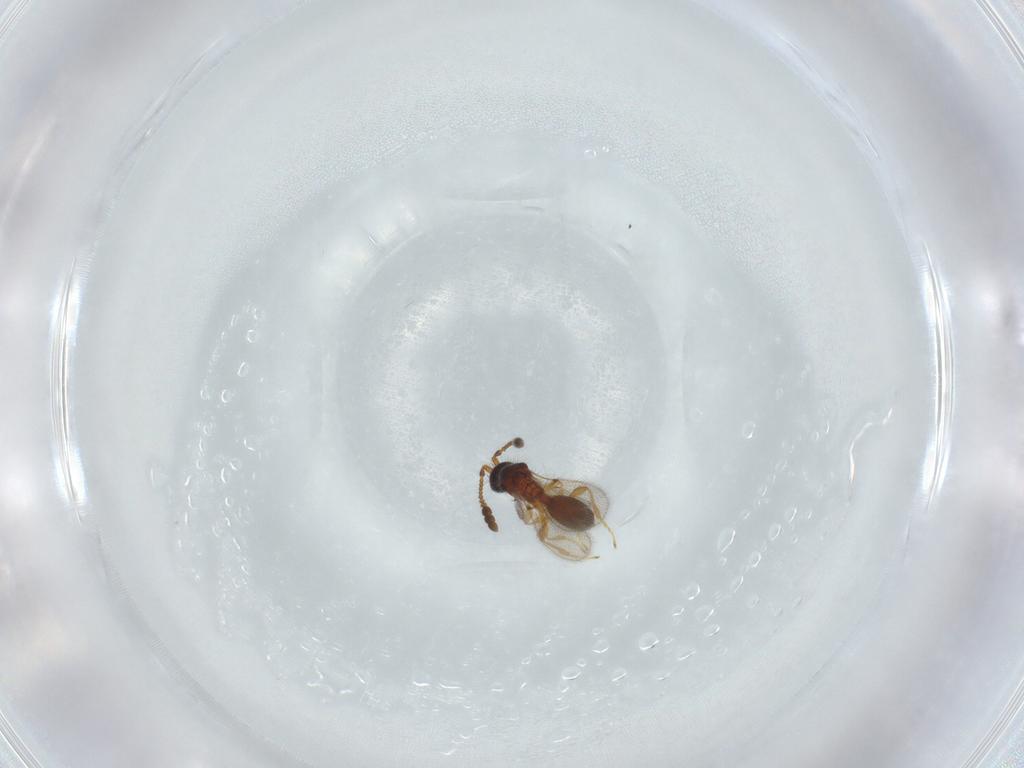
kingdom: Animalia
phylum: Arthropoda
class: Insecta
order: Hymenoptera
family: Diapriidae
